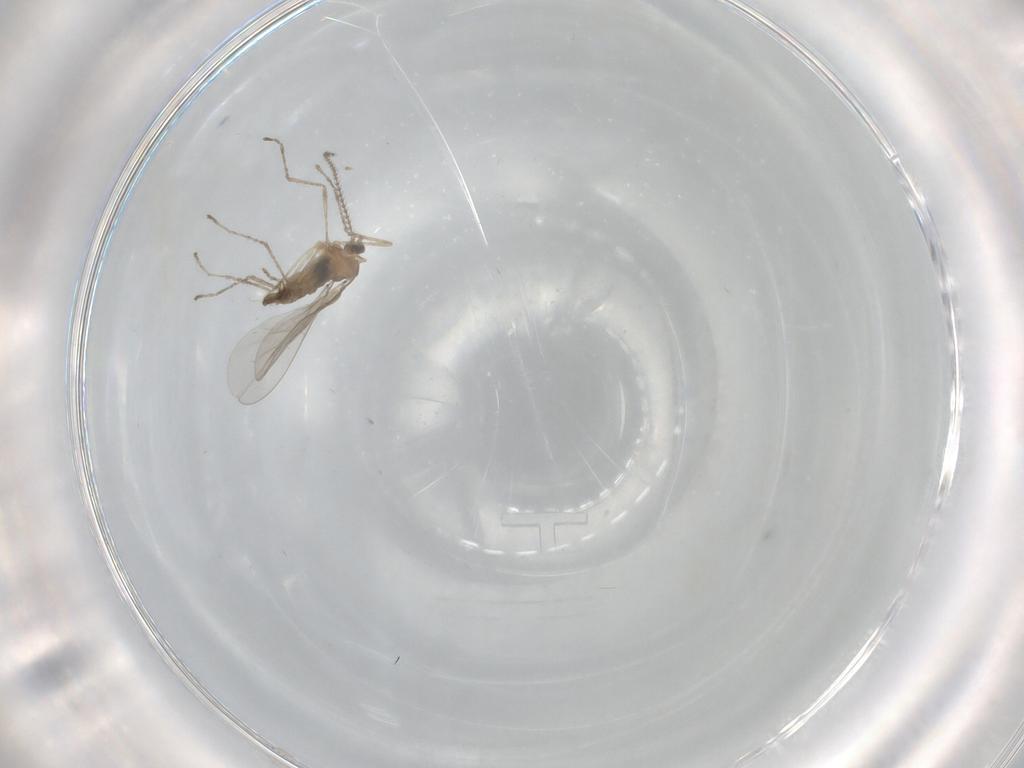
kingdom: Animalia
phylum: Arthropoda
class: Insecta
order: Diptera
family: Cecidomyiidae
